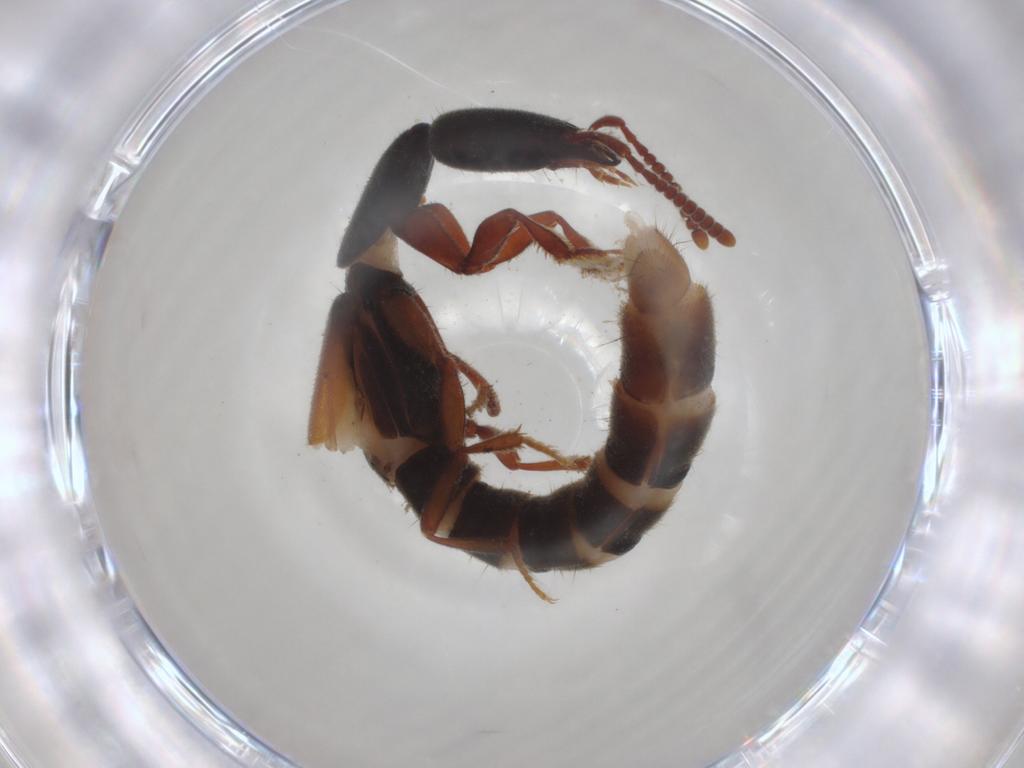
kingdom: Animalia
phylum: Arthropoda
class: Insecta
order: Coleoptera
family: Staphylinidae
